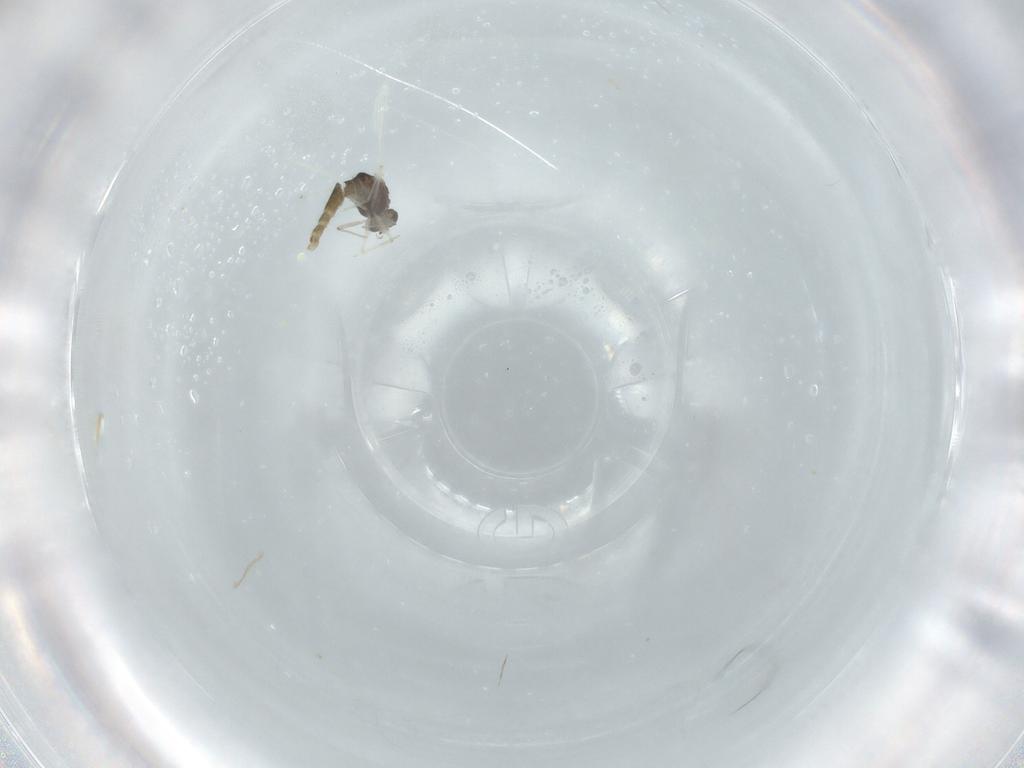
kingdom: Animalia
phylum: Arthropoda
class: Insecta
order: Diptera
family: Chironomidae
